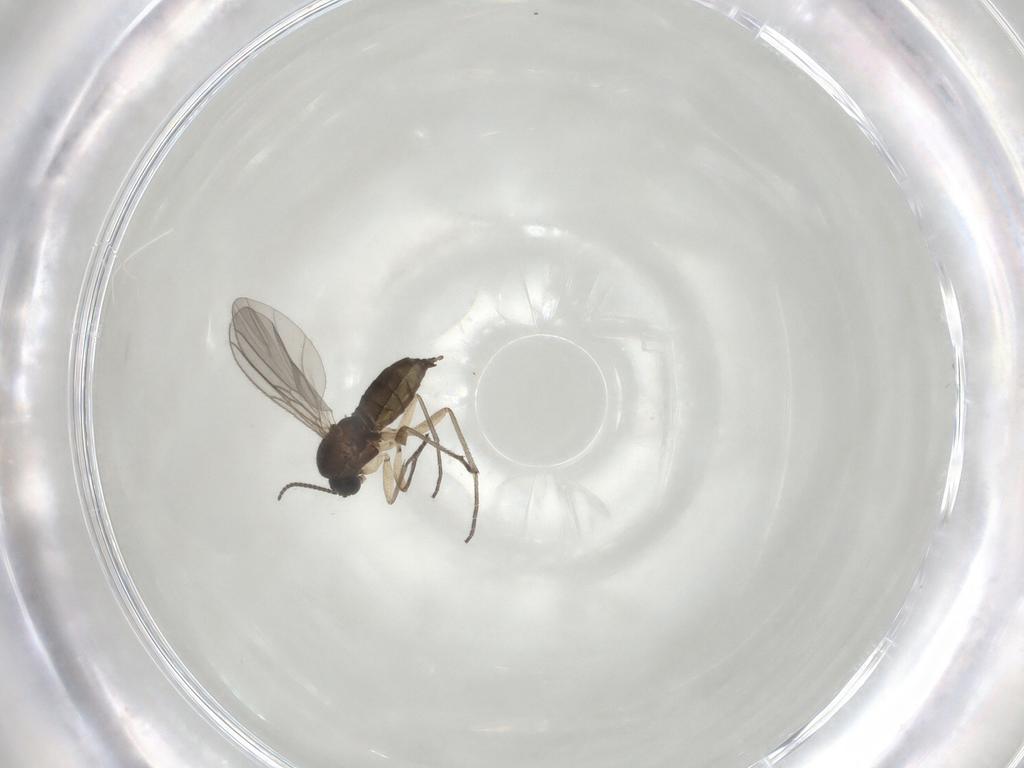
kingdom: Animalia
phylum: Arthropoda
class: Insecta
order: Diptera
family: Sciaridae
